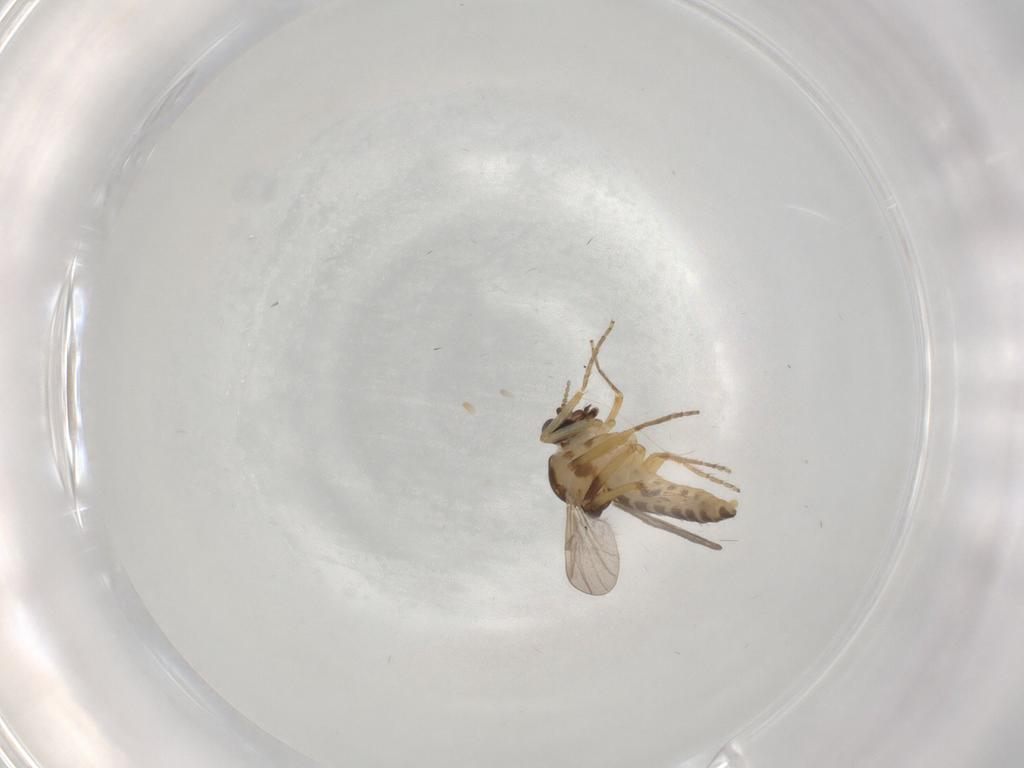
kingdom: Animalia
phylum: Arthropoda
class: Insecta
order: Diptera
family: Ceratopogonidae
